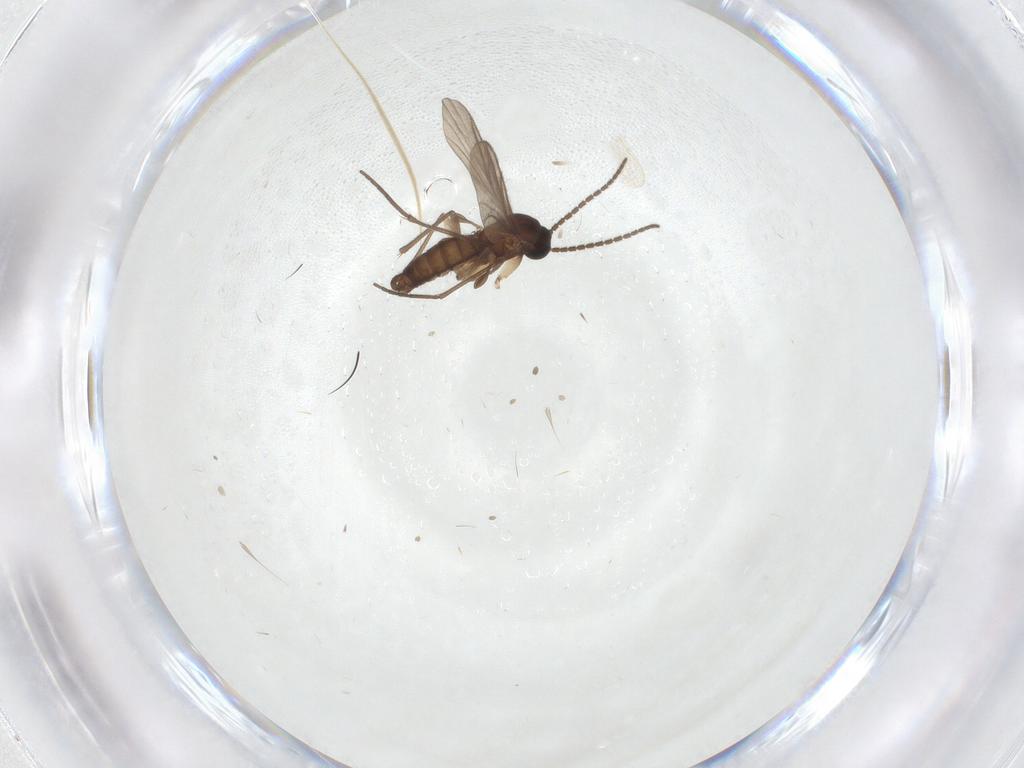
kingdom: Animalia
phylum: Arthropoda
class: Insecta
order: Diptera
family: Sciaridae
